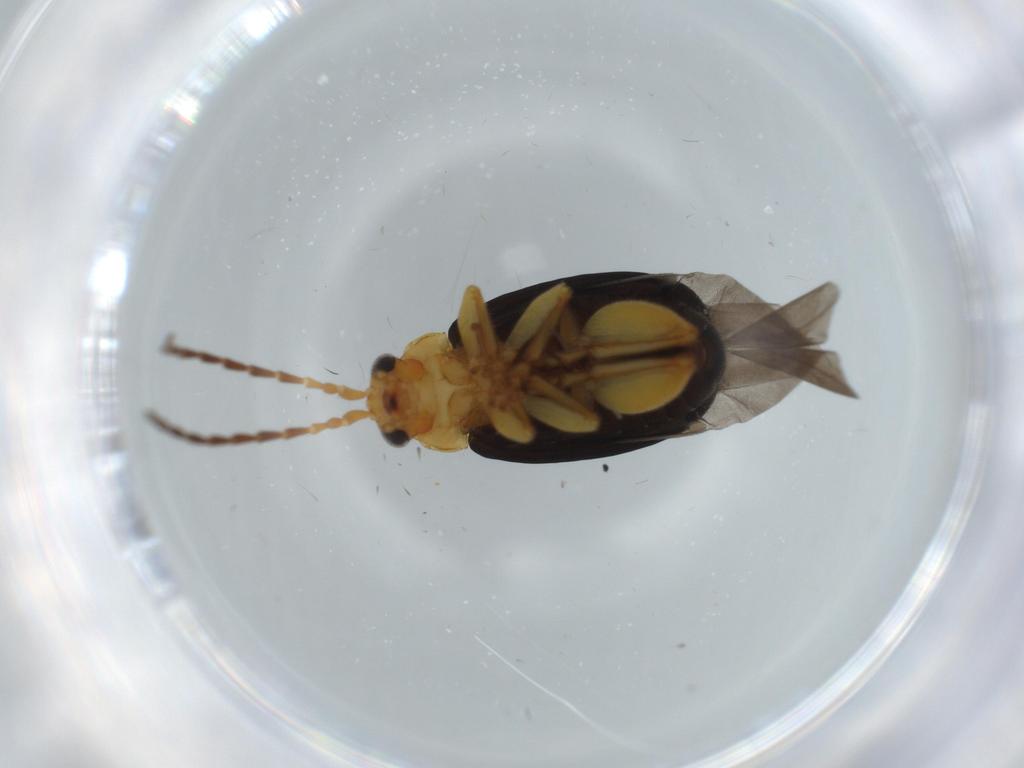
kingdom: Animalia
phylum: Arthropoda
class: Insecta
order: Coleoptera
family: Chrysomelidae
